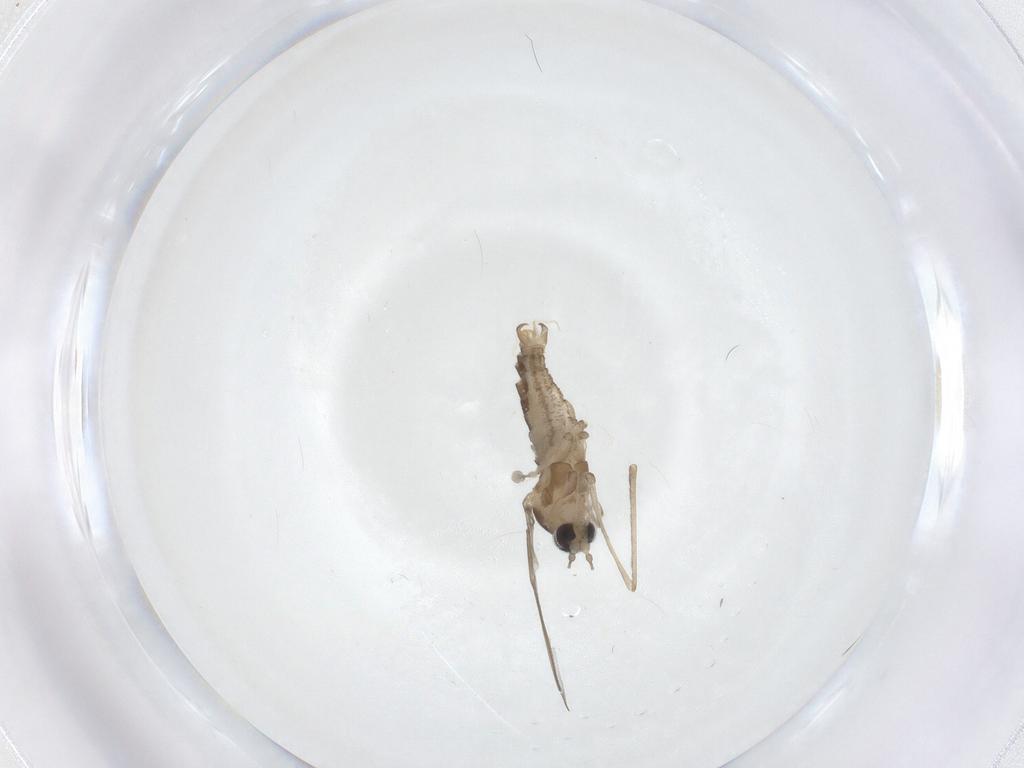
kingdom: Animalia
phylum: Arthropoda
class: Insecta
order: Diptera
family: Cecidomyiidae
